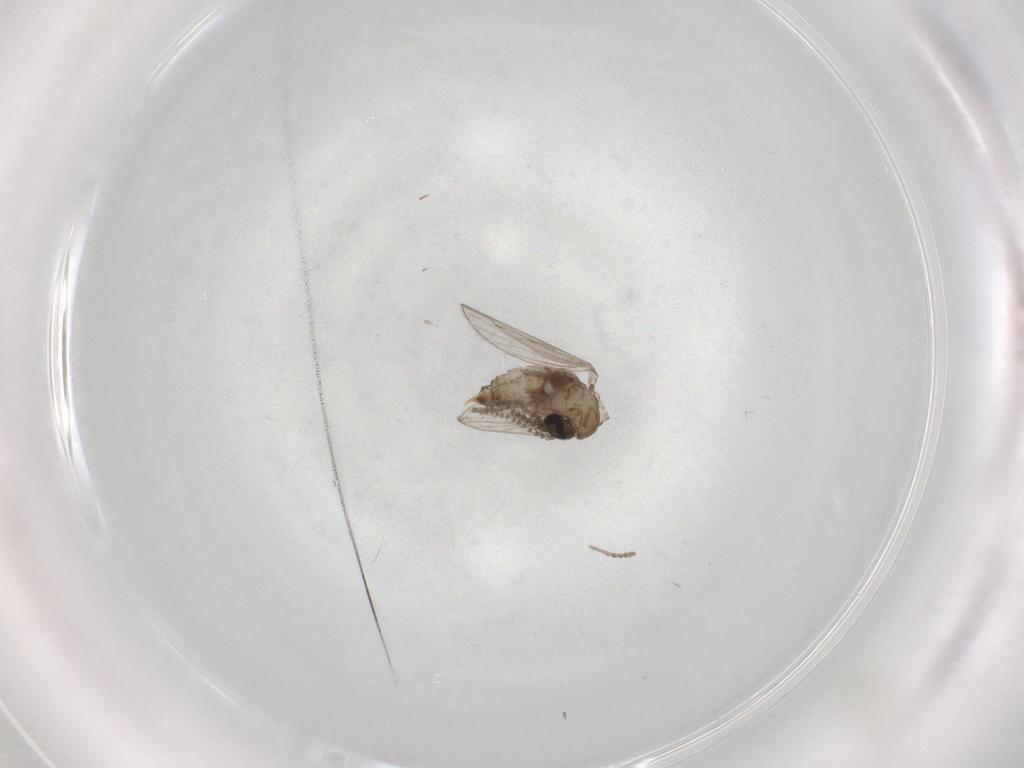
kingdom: Animalia
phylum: Arthropoda
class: Insecta
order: Diptera
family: Psychodidae
